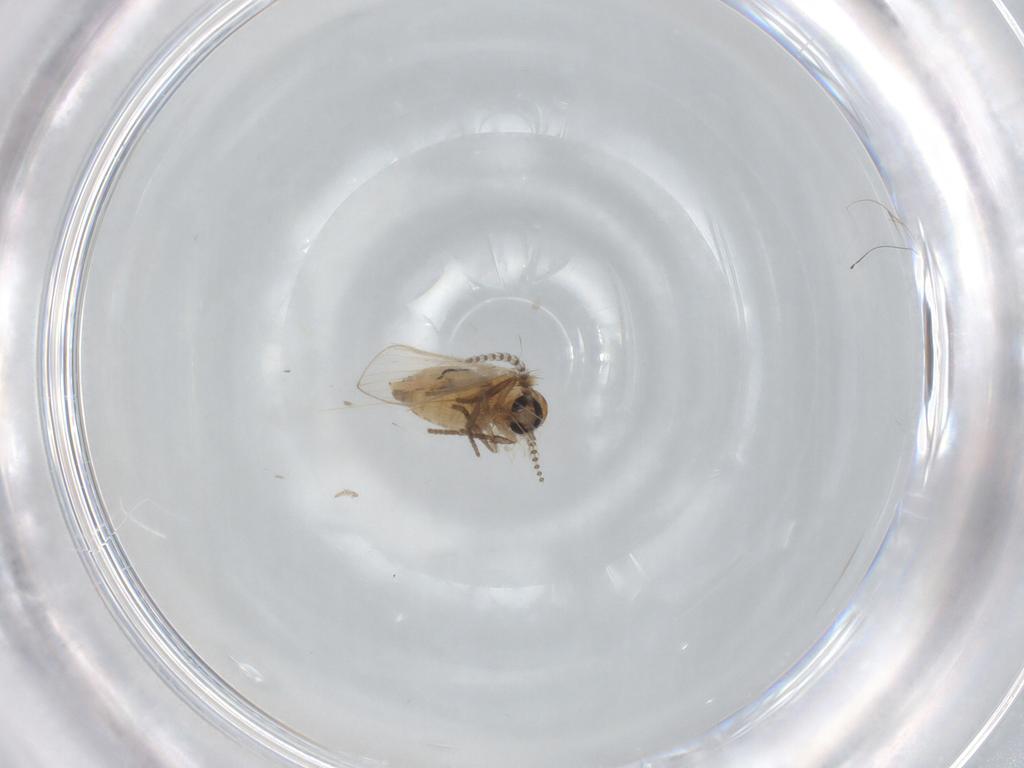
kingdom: Animalia
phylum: Arthropoda
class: Insecta
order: Diptera
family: Psychodidae
